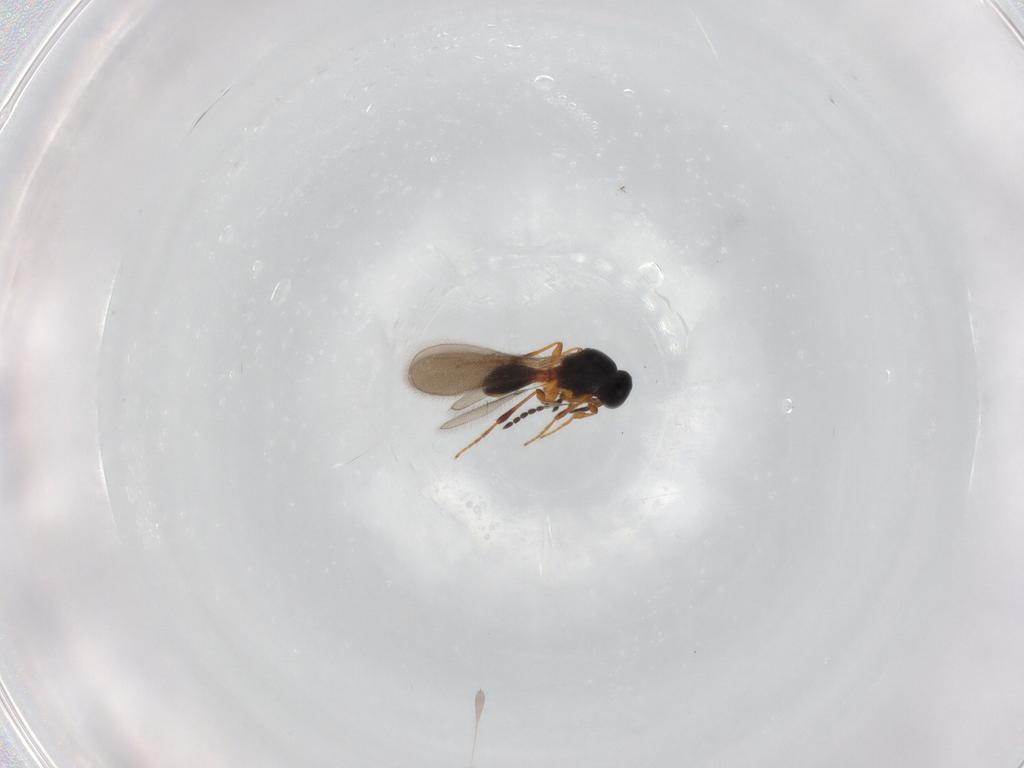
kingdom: Animalia
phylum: Arthropoda
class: Insecta
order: Hymenoptera
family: Platygastridae
